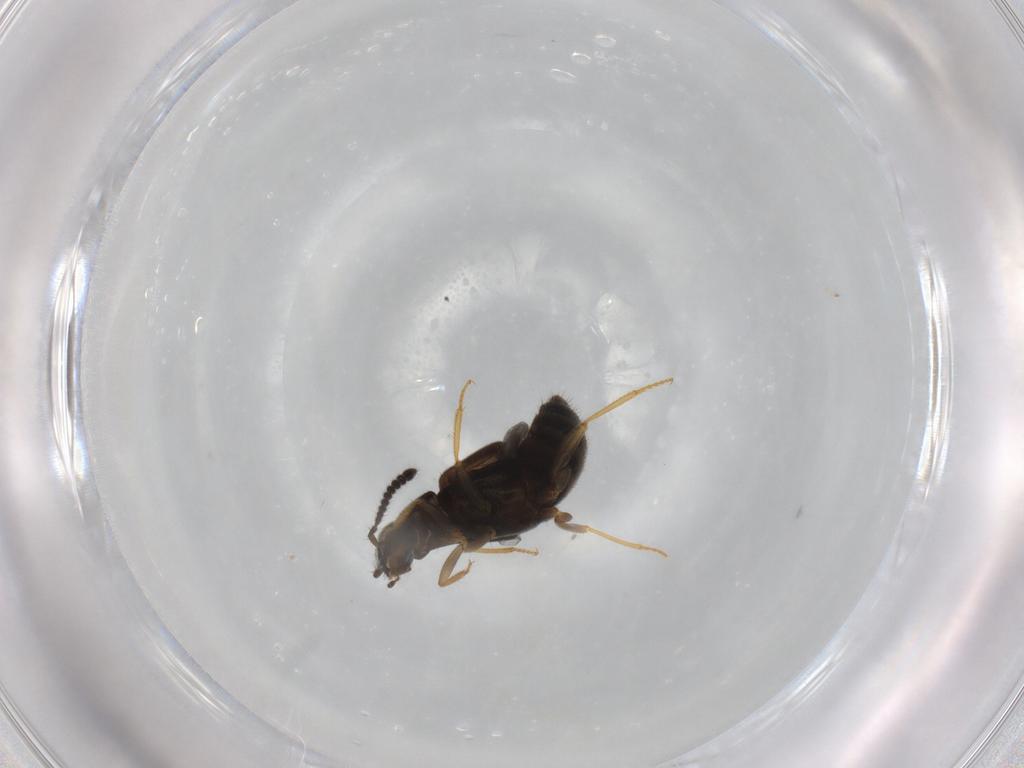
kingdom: Animalia
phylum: Arthropoda
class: Insecta
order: Coleoptera
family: Staphylinidae
